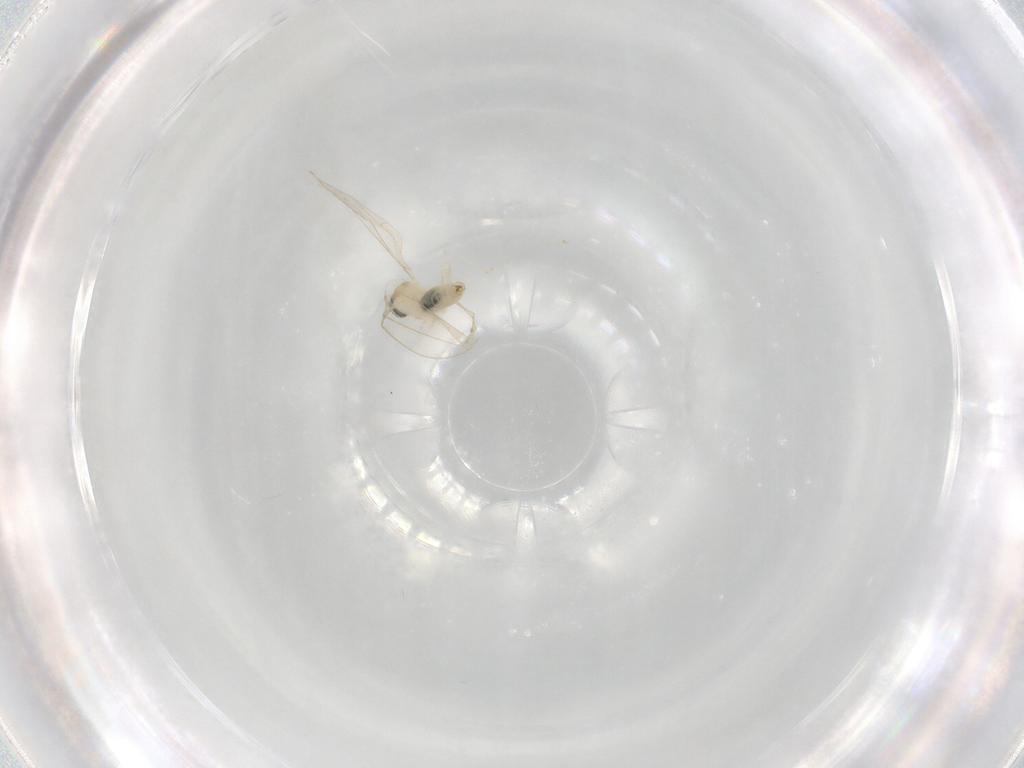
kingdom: Animalia
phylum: Arthropoda
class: Insecta
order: Diptera
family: Cecidomyiidae
